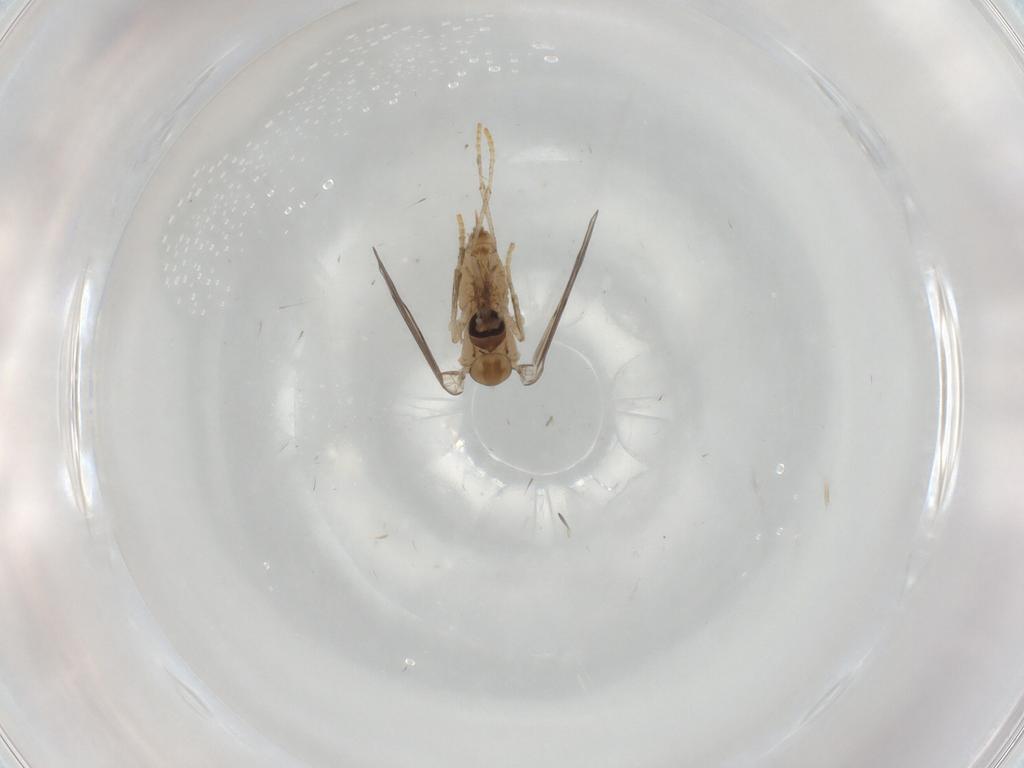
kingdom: Animalia
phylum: Arthropoda
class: Insecta
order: Diptera
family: Psychodidae
